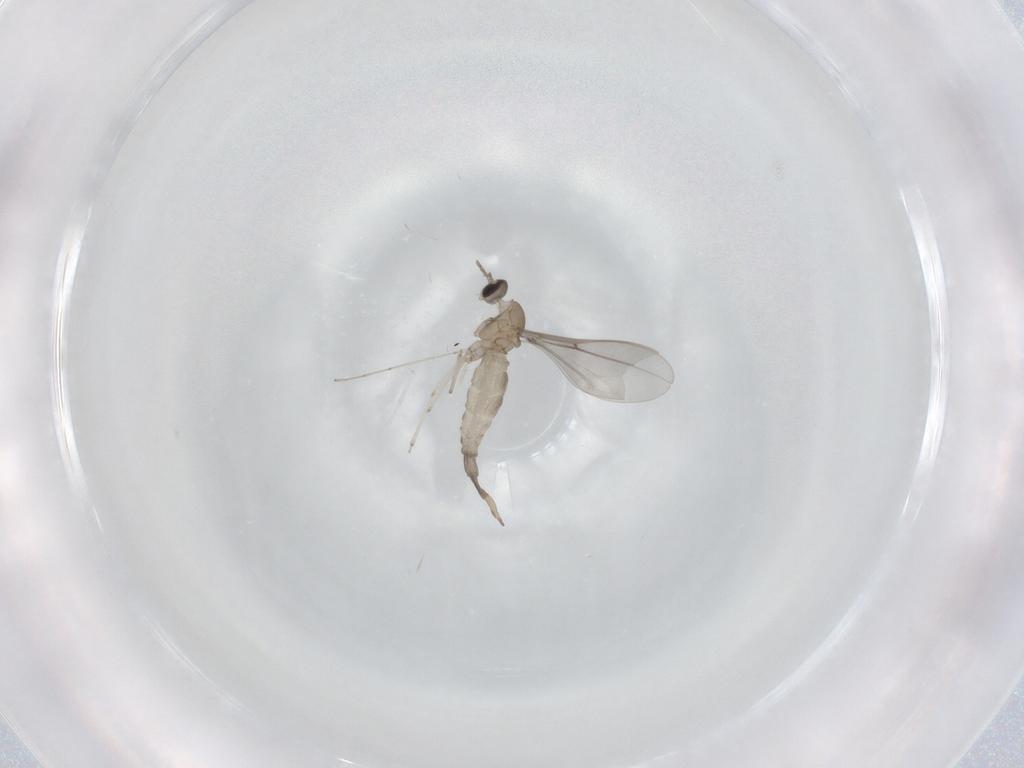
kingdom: Animalia
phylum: Arthropoda
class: Insecta
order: Diptera
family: Cecidomyiidae
